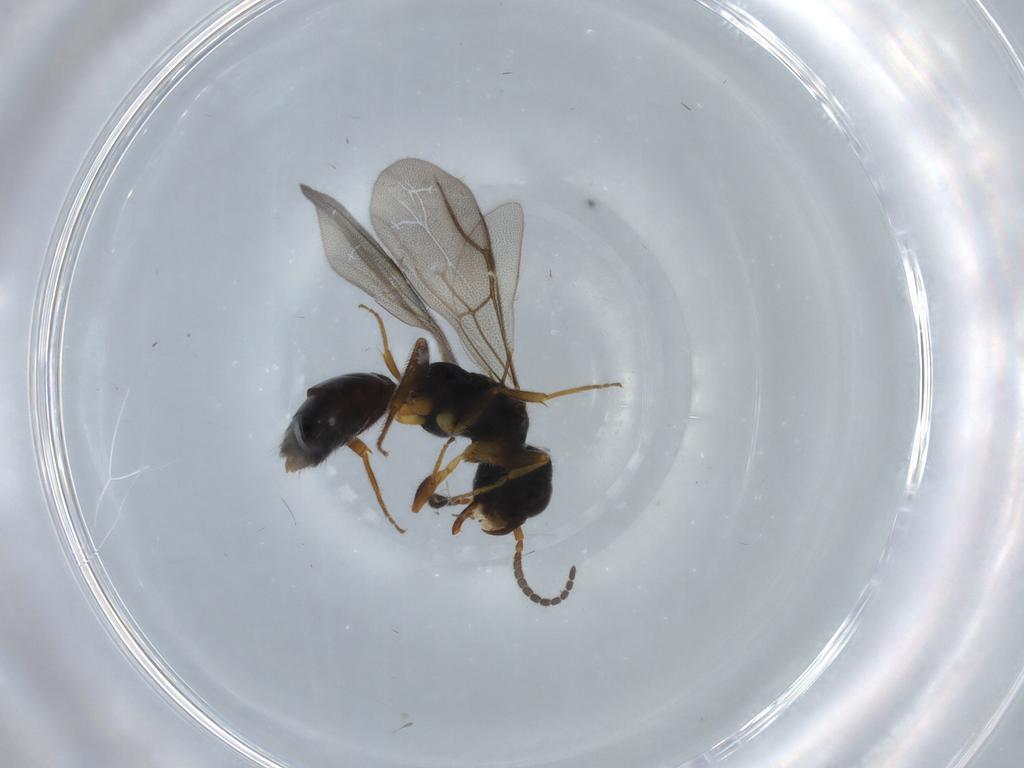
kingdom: Animalia
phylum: Arthropoda
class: Insecta
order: Hymenoptera
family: Bethylidae
